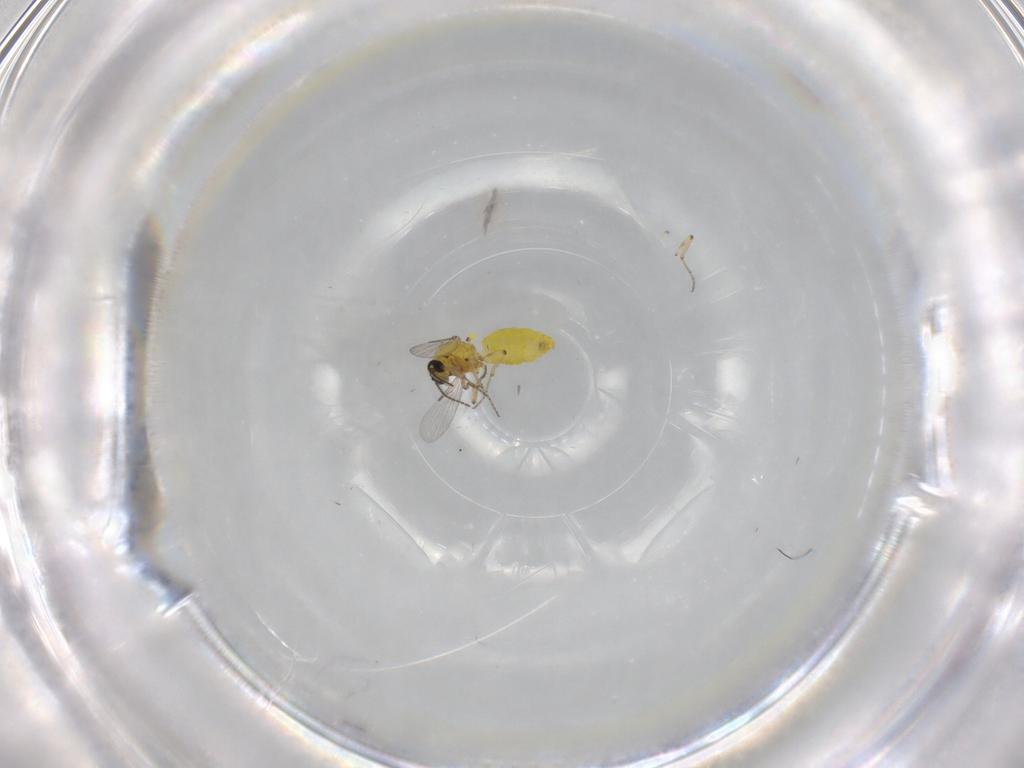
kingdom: Animalia
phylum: Arthropoda
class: Insecta
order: Diptera
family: Ceratopogonidae
